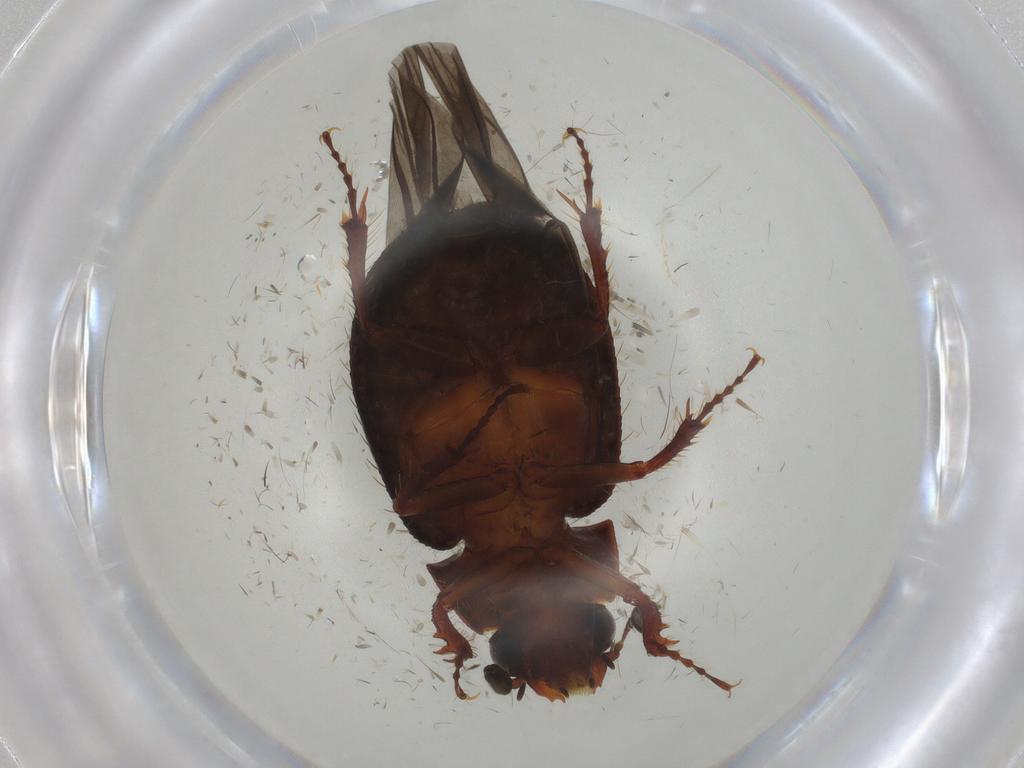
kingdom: Animalia
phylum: Arthropoda
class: Insecta
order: Coleoptera
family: Hybosoridae
